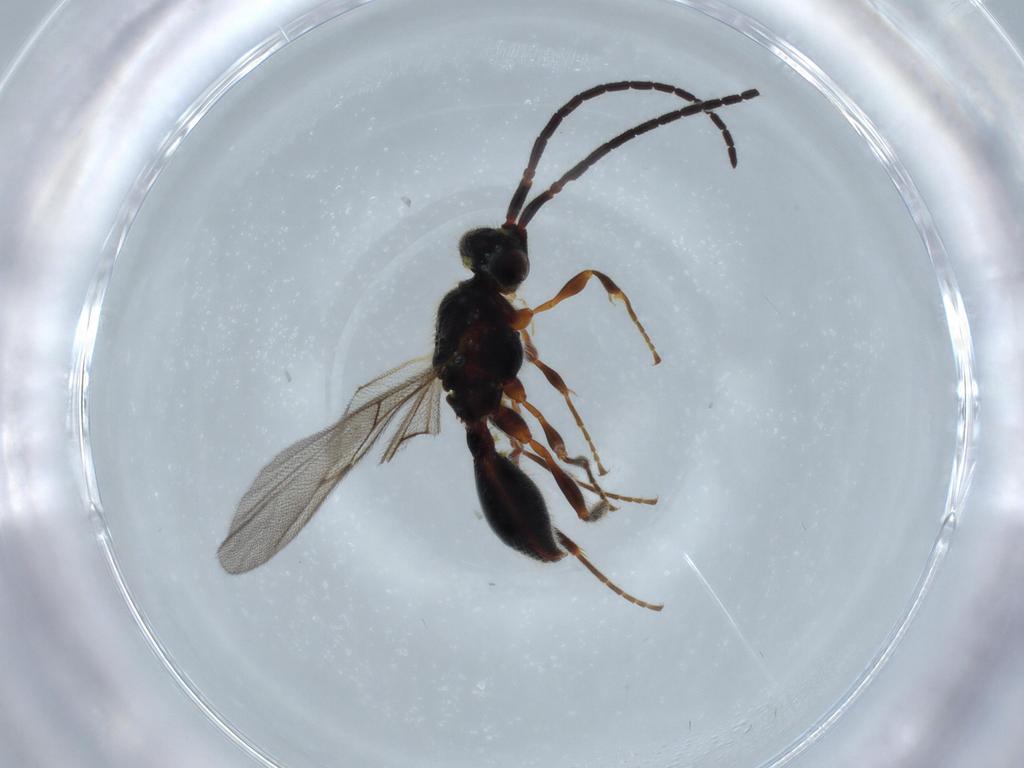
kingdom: Animalia
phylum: Arthropoda
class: Insecta
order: Hymenoptera
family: Diapriidae
